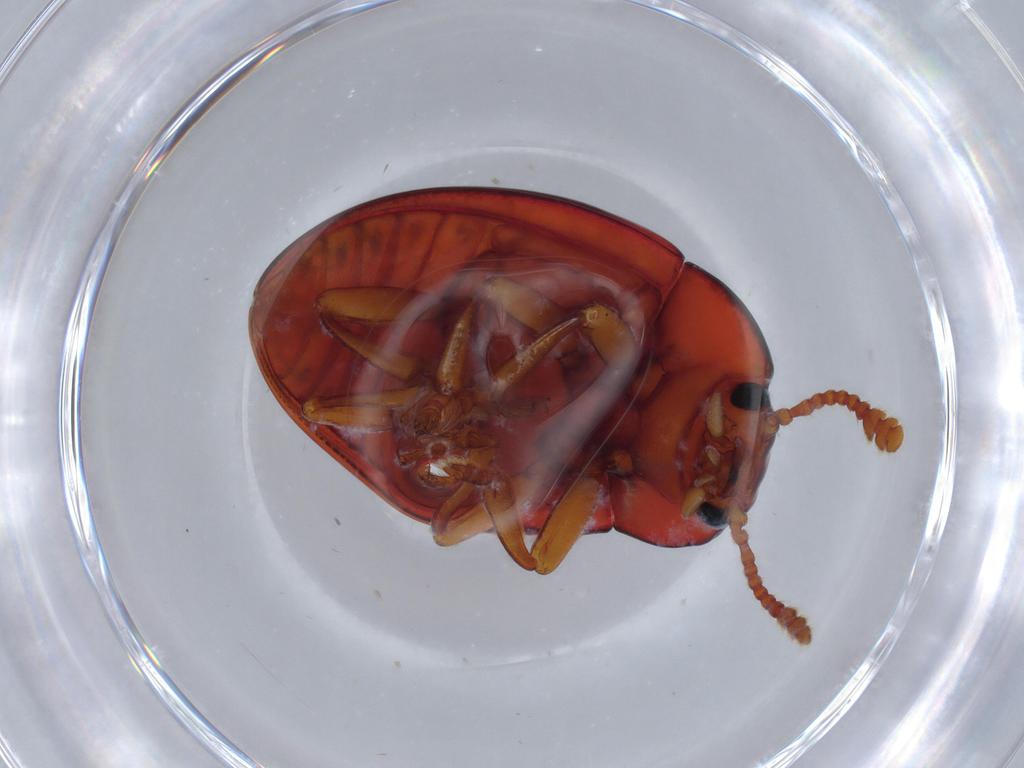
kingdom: Animalia
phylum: Arthropoda
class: Insecta
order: Coleoptera
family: Erotylidae
